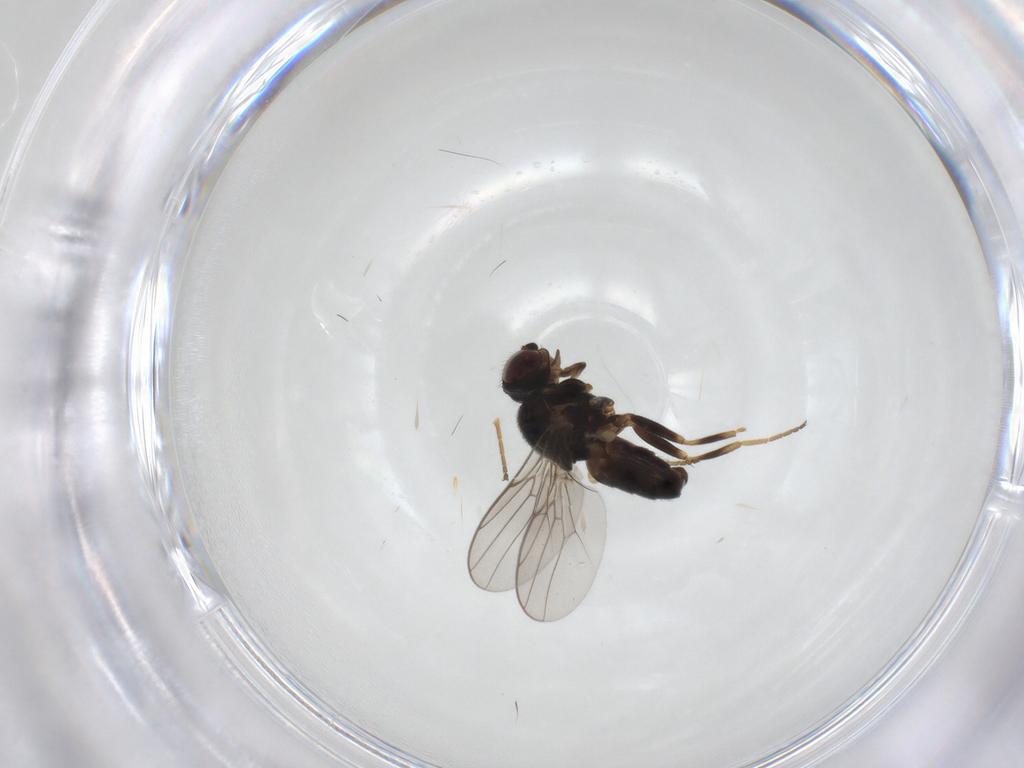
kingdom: Animalia
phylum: Arthropoda
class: Insecta
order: Diptera
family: Chloropidae
